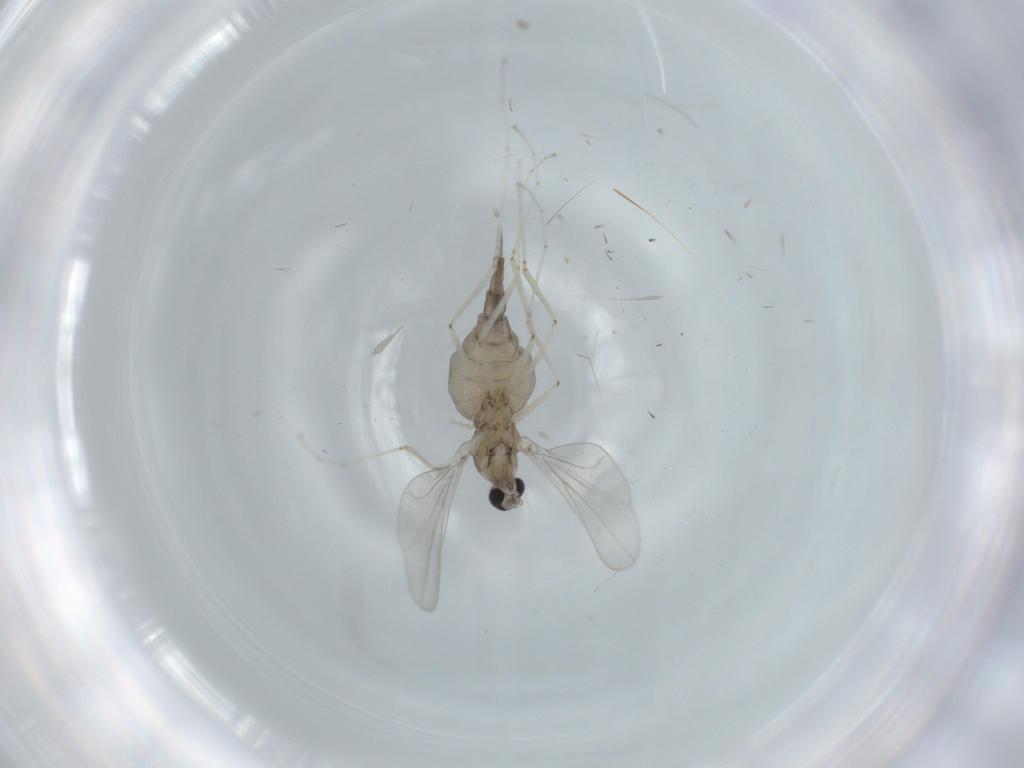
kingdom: Animalia
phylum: Arthropoda
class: Insecta
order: Diptera
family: Cecidomyiidae
